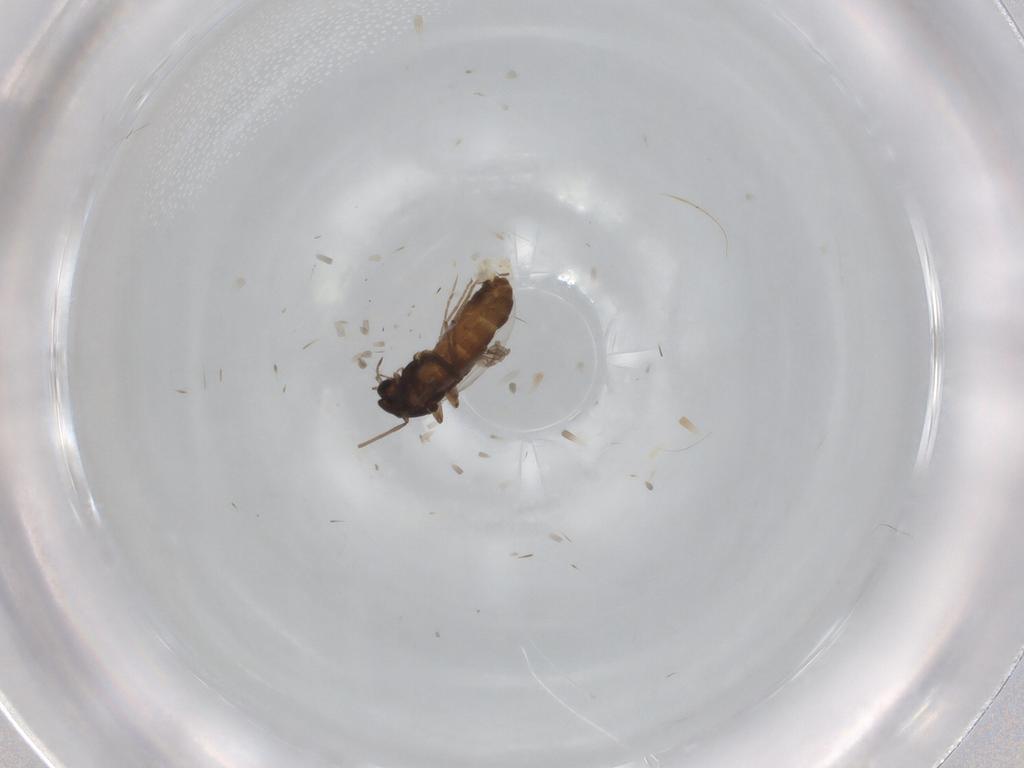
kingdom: Animalia
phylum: Arthropoda
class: Insecta
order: Diptera
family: Chironomidae
